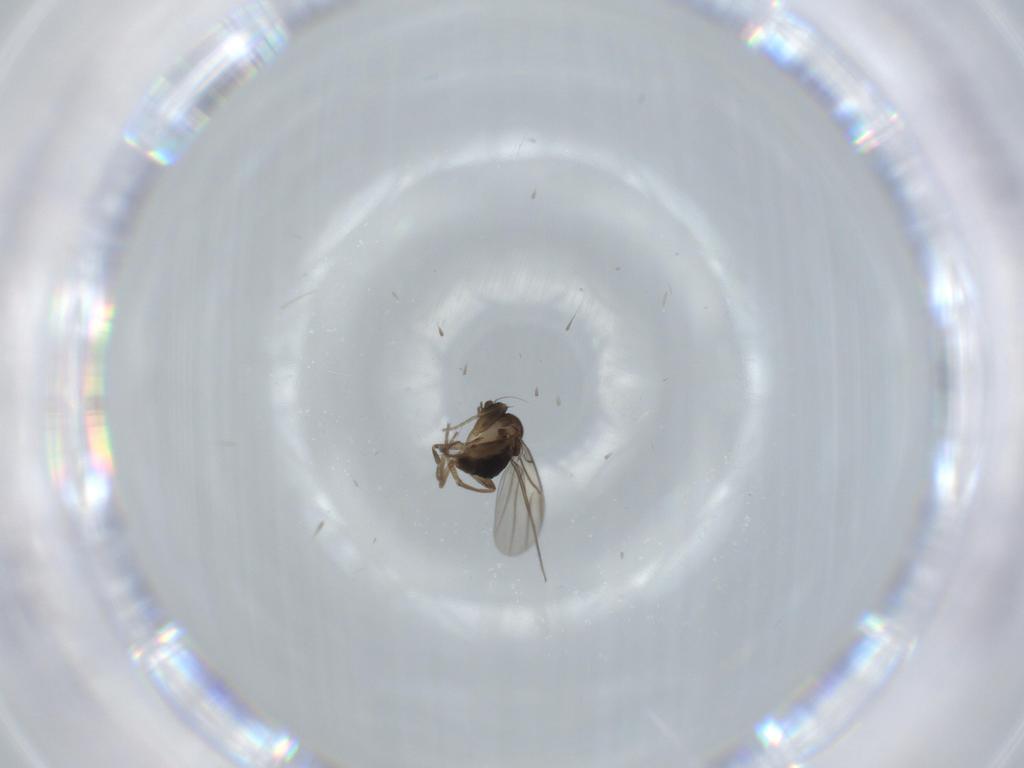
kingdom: Animalia
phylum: Arthropoda
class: Insecta
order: Diptera
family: Phoridae
